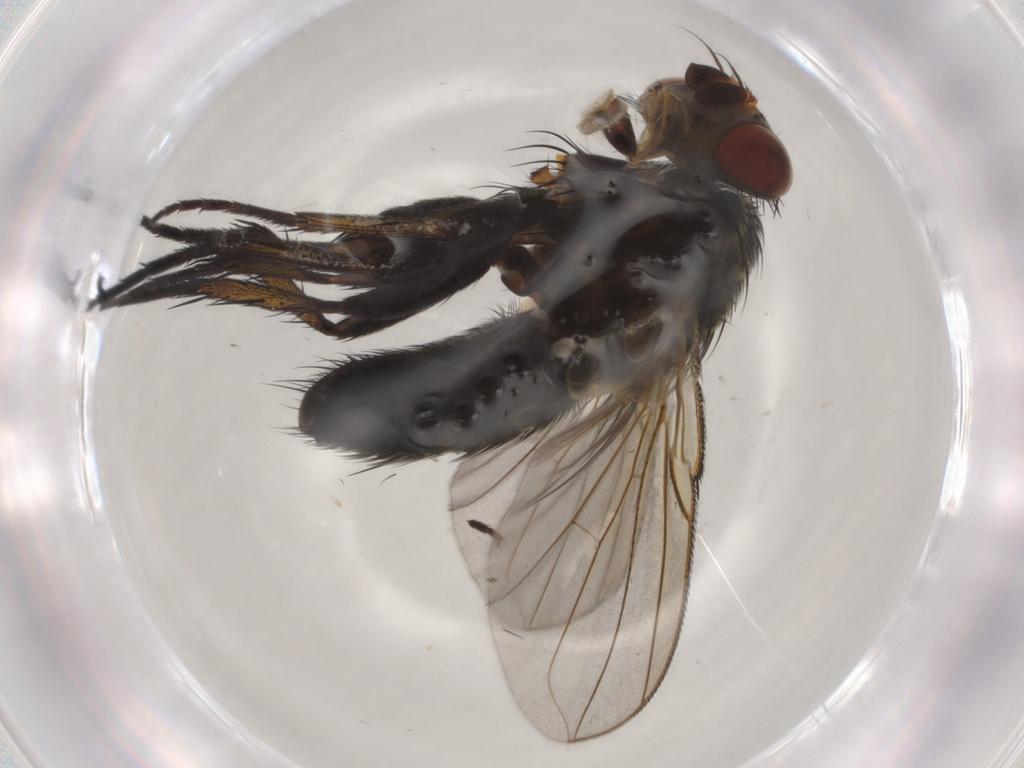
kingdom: Animalia
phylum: Arthropoda
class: Insecta
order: Diptera
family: Tachinidae
